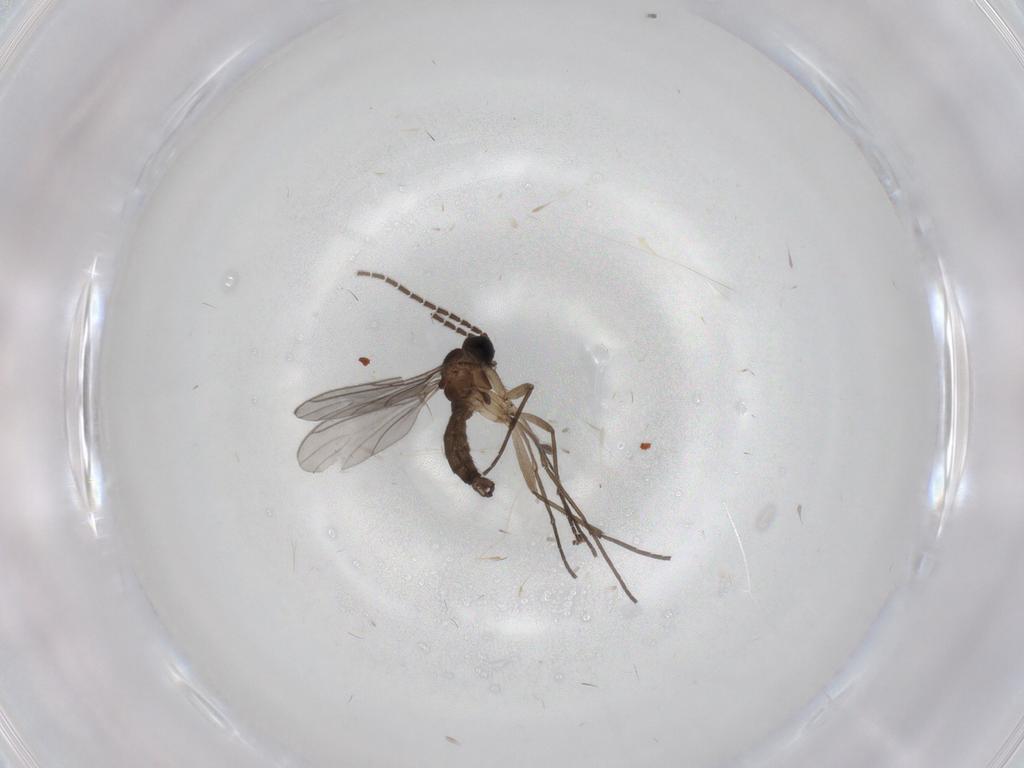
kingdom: Animalia
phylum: Arthropoda
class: Insecta
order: Diptera
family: Cecidomyiidae
